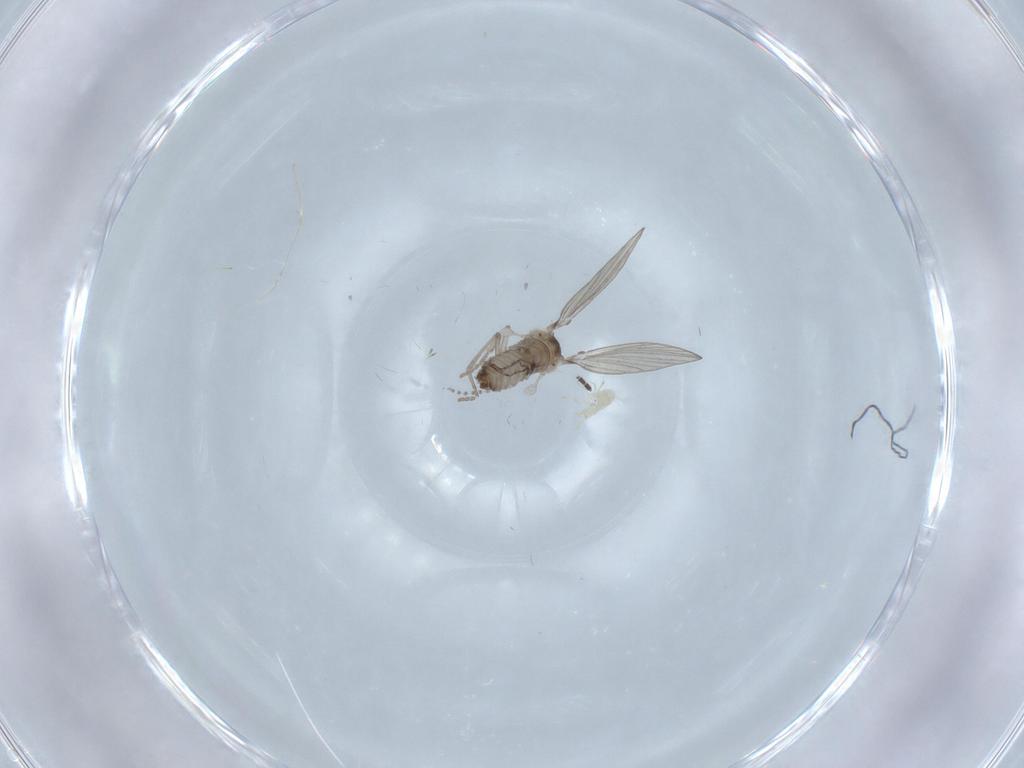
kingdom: Animalia
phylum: Arthropoda
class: Insecta
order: Diptera
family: Psychodidae
